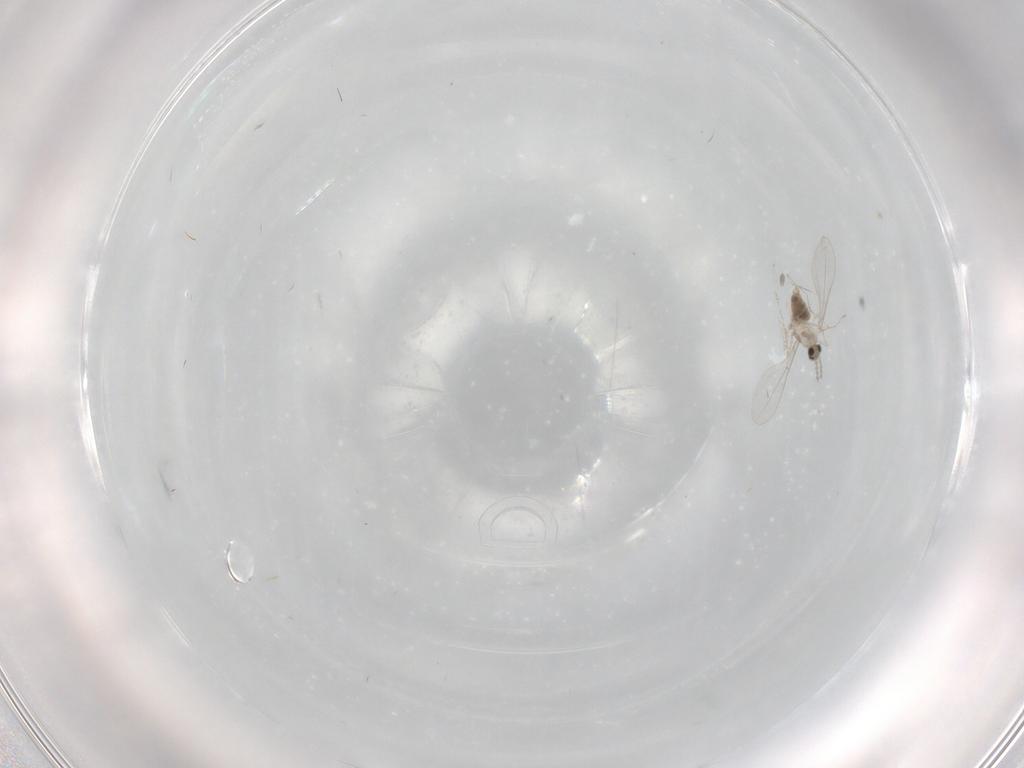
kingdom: Animalia
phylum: Arthropoda
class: Insecta
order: Diptera
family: Cecidomyiidae
